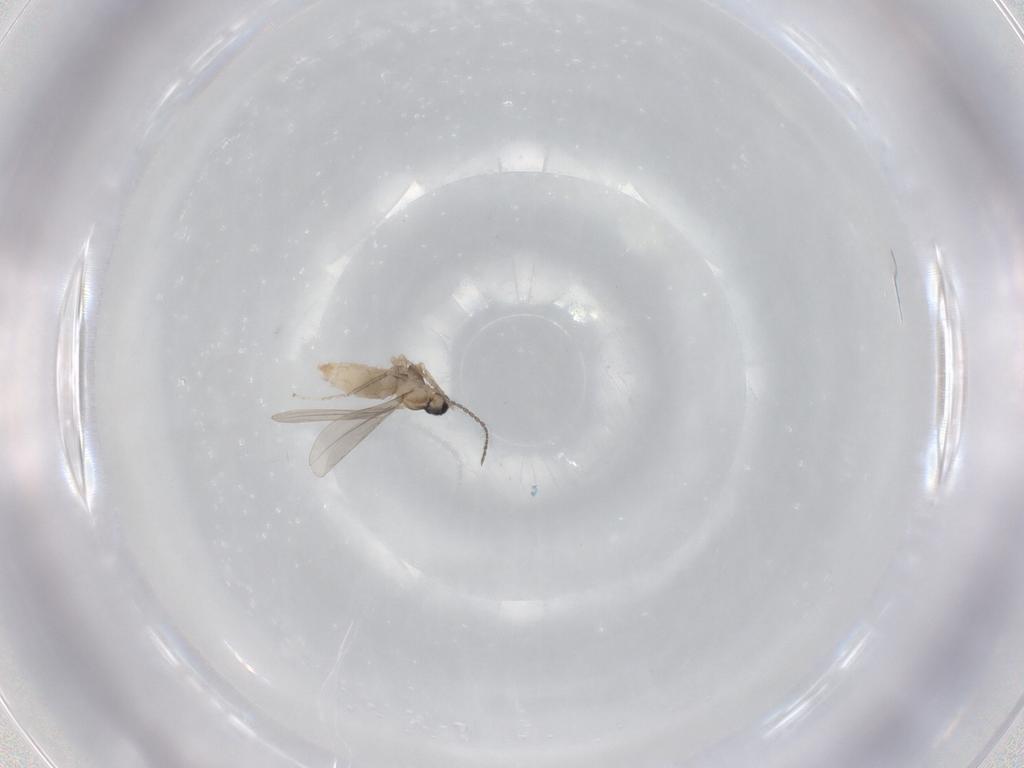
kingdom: Animalia
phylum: Arthropoda
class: Insecta
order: Diptera
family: Cecidomyiidae
